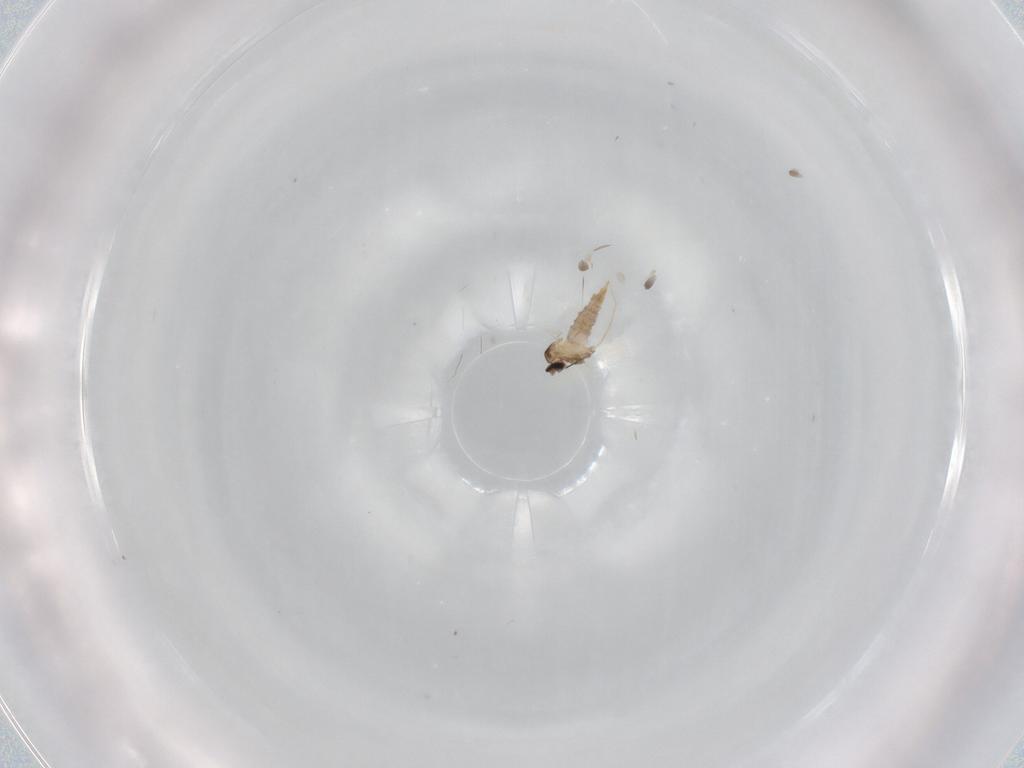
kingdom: Animalia
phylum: Arthropoda
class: Insecta
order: Diptera
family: Cecidomyiidae
